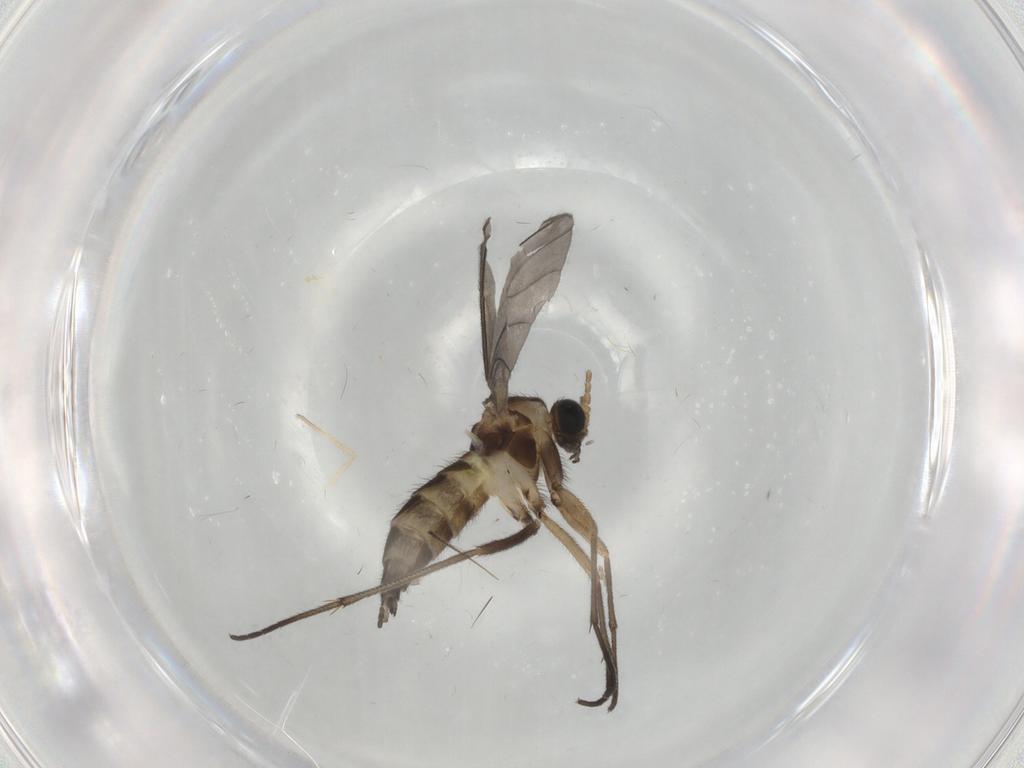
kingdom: Animalia
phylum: Arthropoda
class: Insecta
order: Diptera
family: Sciaridae
